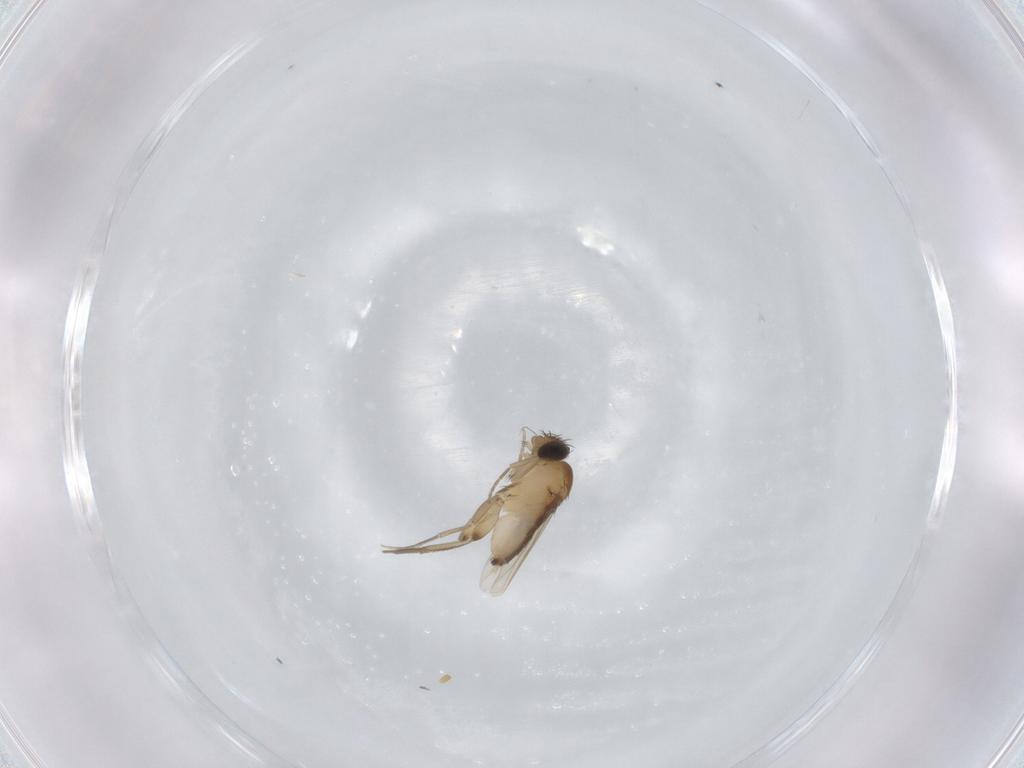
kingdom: Animalia
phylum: Arthropoda
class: Insecta
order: Diptera
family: Phoridae
